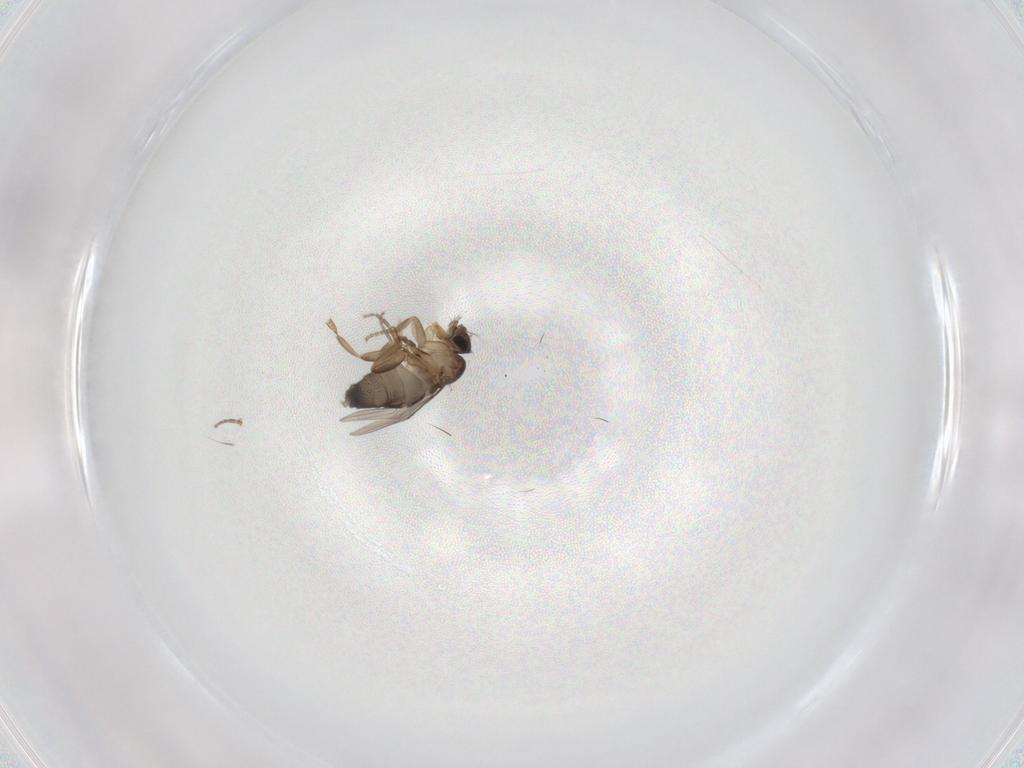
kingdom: Animalia
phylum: Arthropoda
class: Insecta
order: Diptera
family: Phoridae
